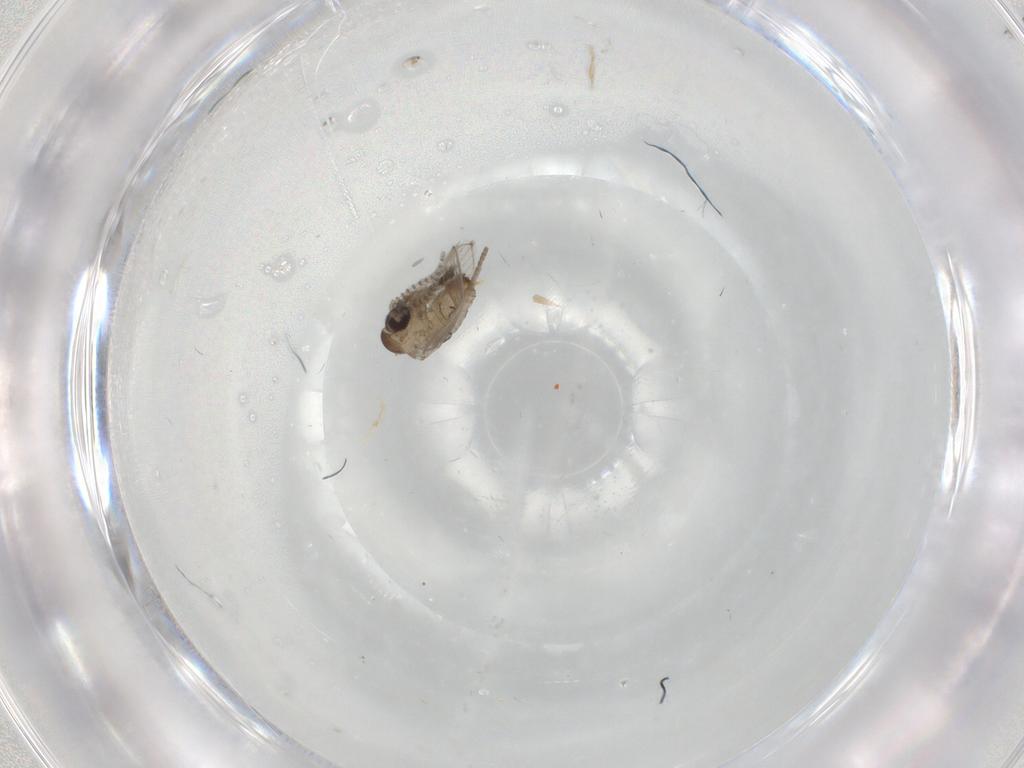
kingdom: Animalia
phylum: Arthropoda
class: Insecta
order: Diptera
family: Psychodidae
